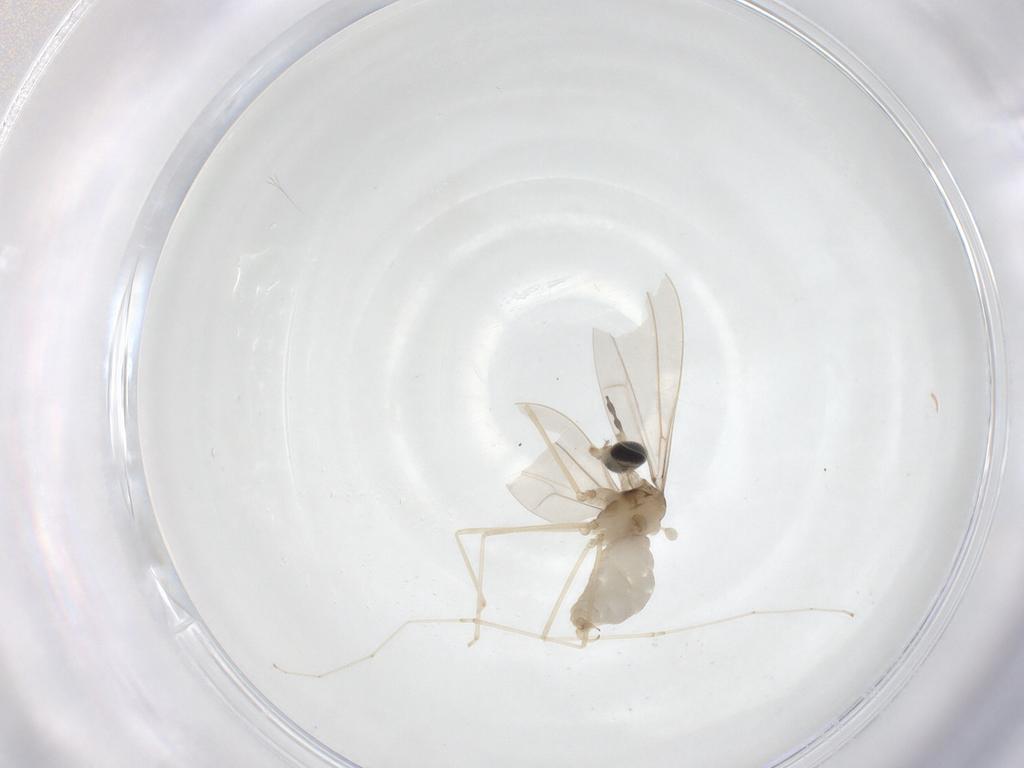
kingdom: Animalia
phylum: Arthropoda
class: Insecta
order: Diptera
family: Cecidomyiidae
